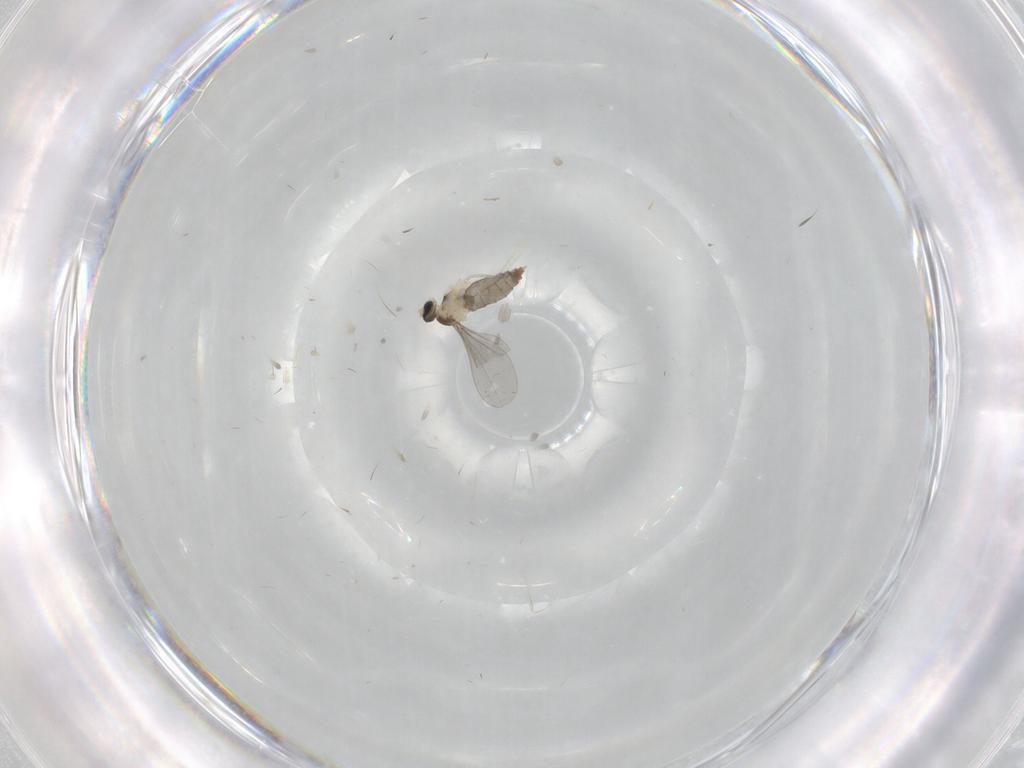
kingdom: Animalia
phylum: Arthropoda
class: Insecta
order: Diptera
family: Cecidomyiidae
